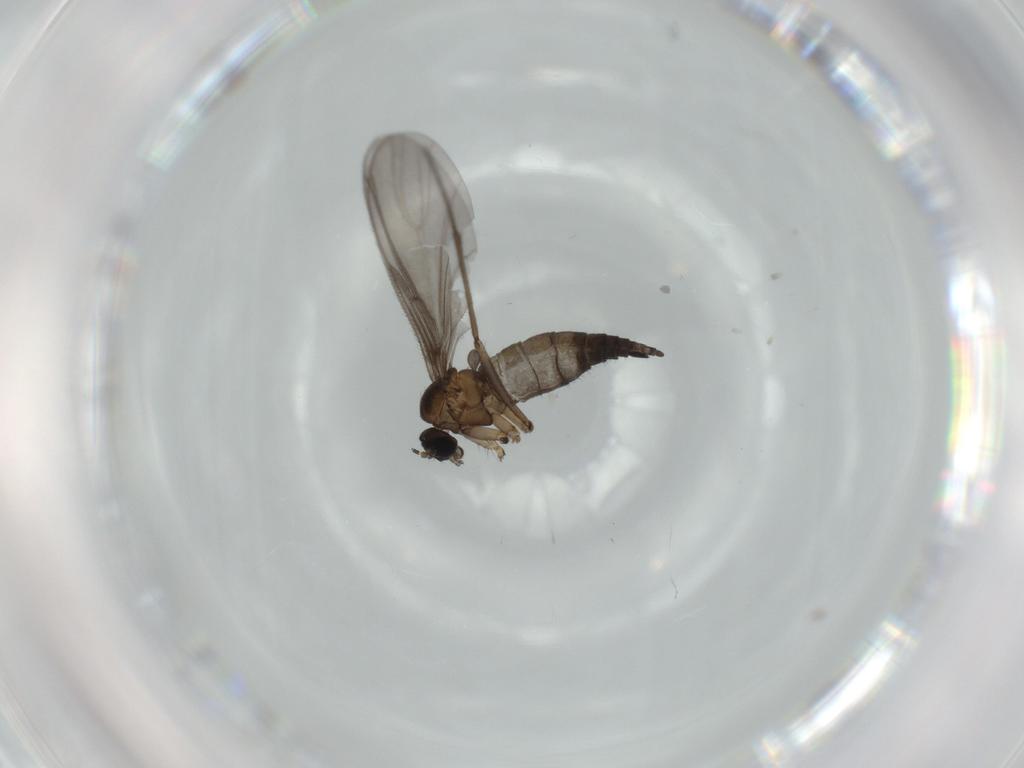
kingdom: Animalia
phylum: Arthropoda
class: Insecta
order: Diptera
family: Sciaridae
